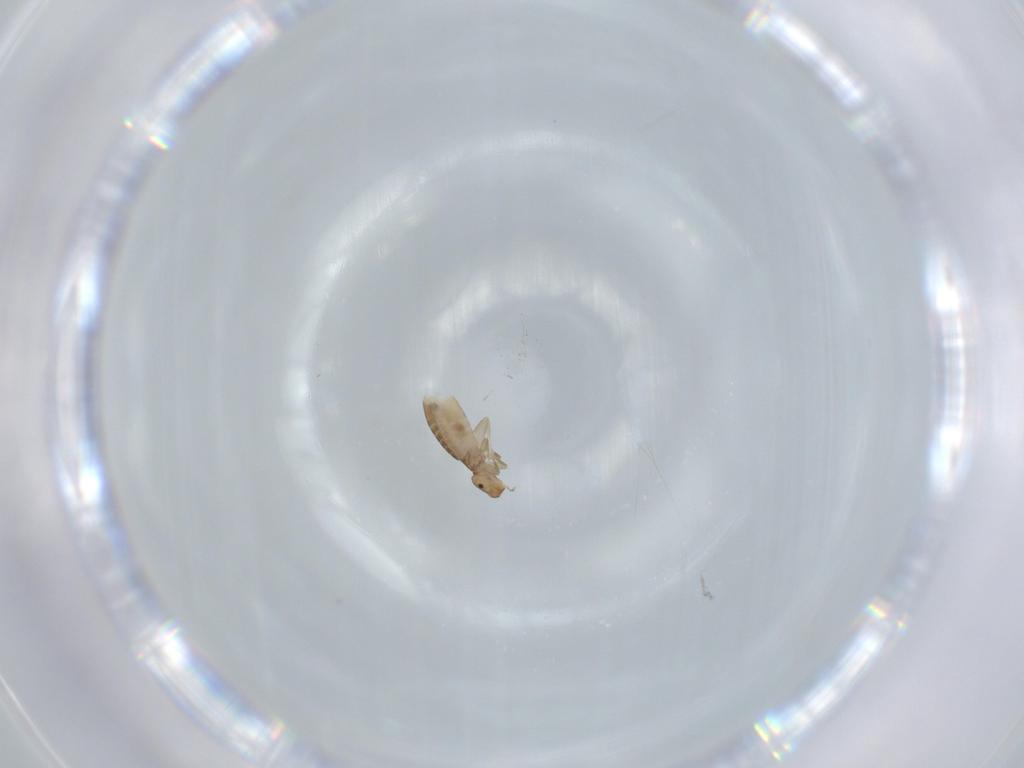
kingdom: Animalia
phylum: Arthropoda
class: Insecta
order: Psocodea
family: Liposcelididae
